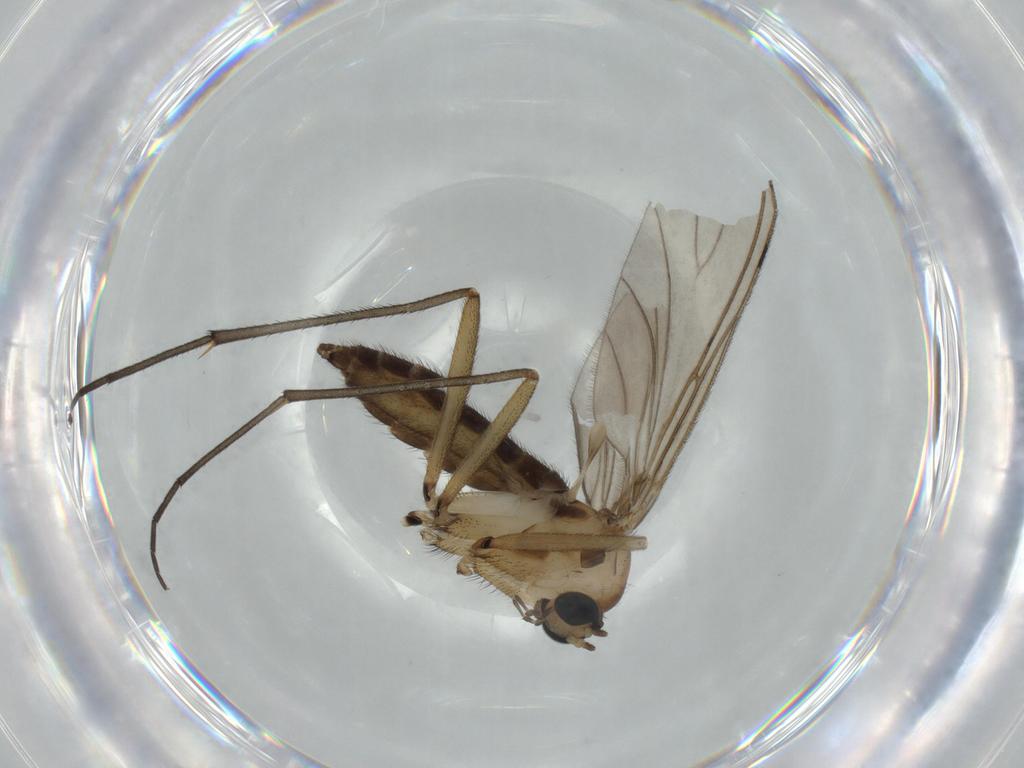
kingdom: Animalia
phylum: Arthropoda
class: Insecta
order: Diptera
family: Sciaridae
